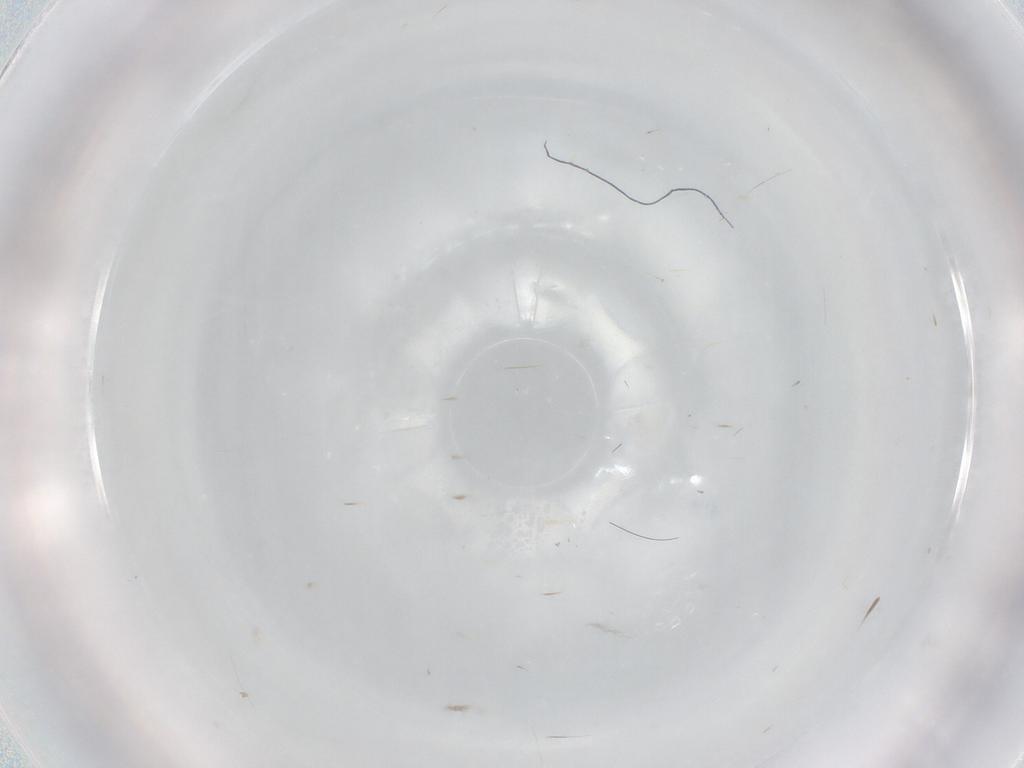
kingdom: Animalia
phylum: Arthropoda
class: Insecta
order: Hymenoptera
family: Scelionidae
